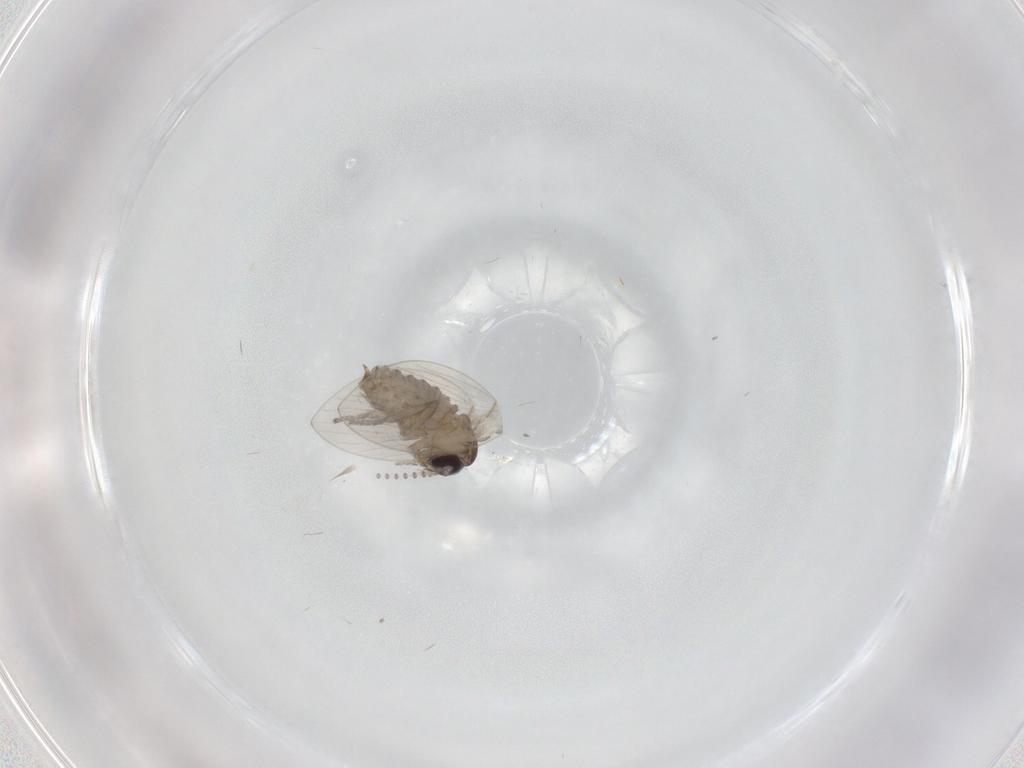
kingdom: Animalia
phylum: Arthropoda
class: Insecta
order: Diptera
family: Psychodidae
